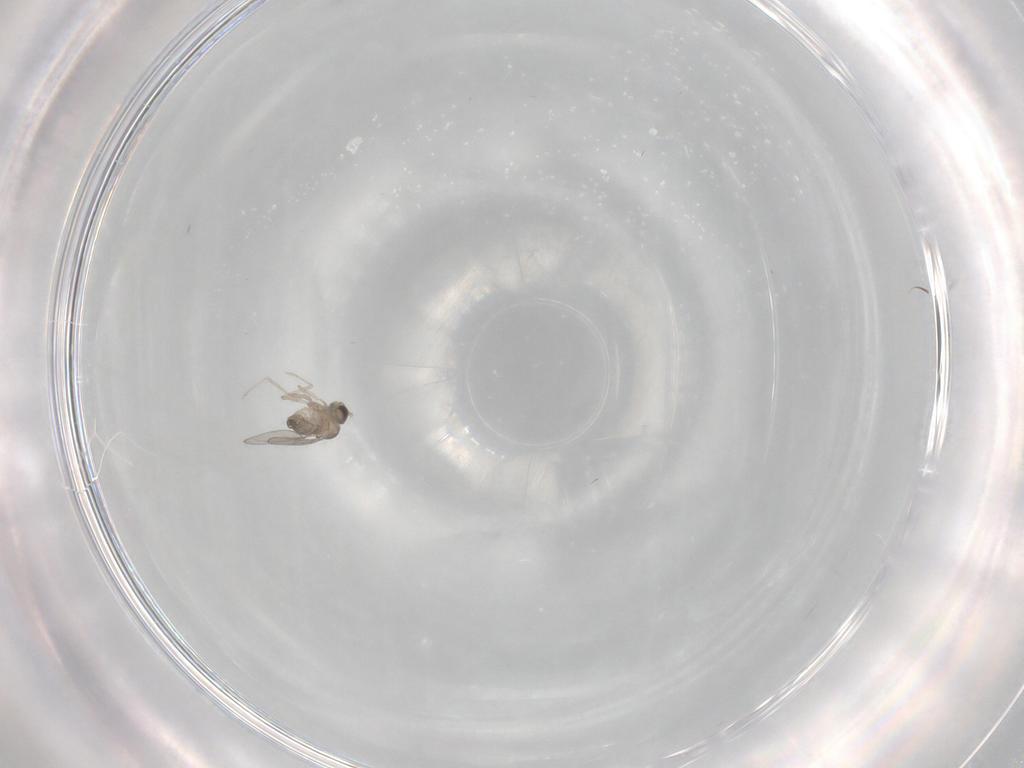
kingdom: Animalia
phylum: Arthropoda
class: Insecta
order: Diptera
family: Cecidomyiidae
